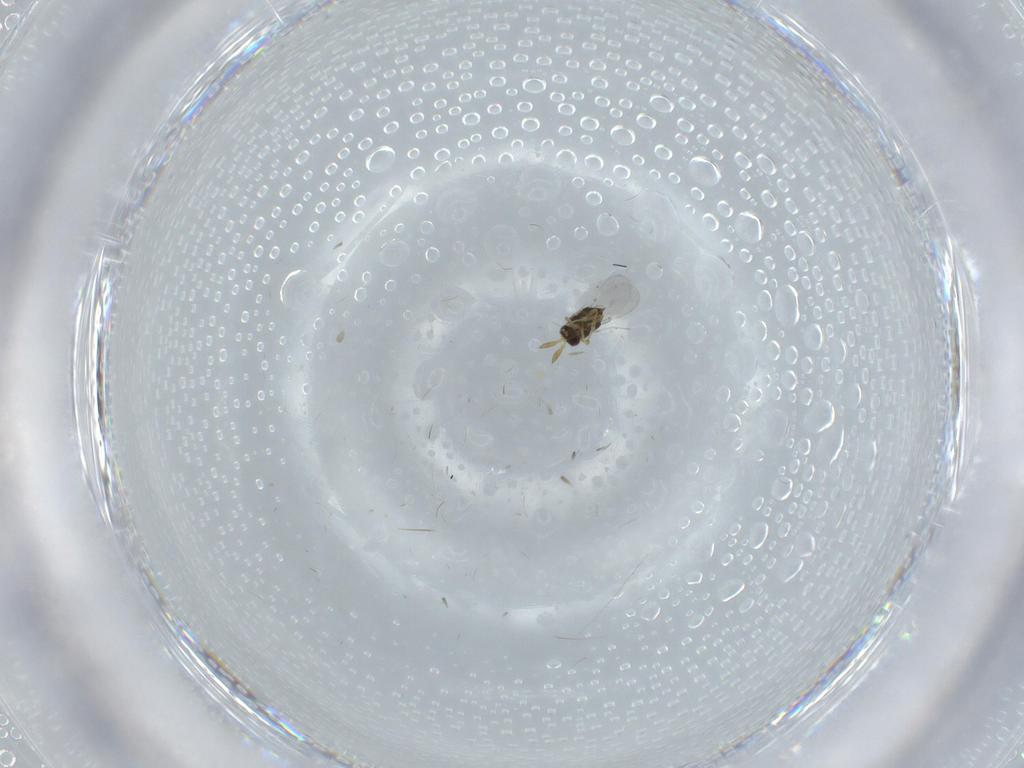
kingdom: Animalia
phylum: Arthropoda
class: Insecta
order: Hymenoptera
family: Encyrtidae
